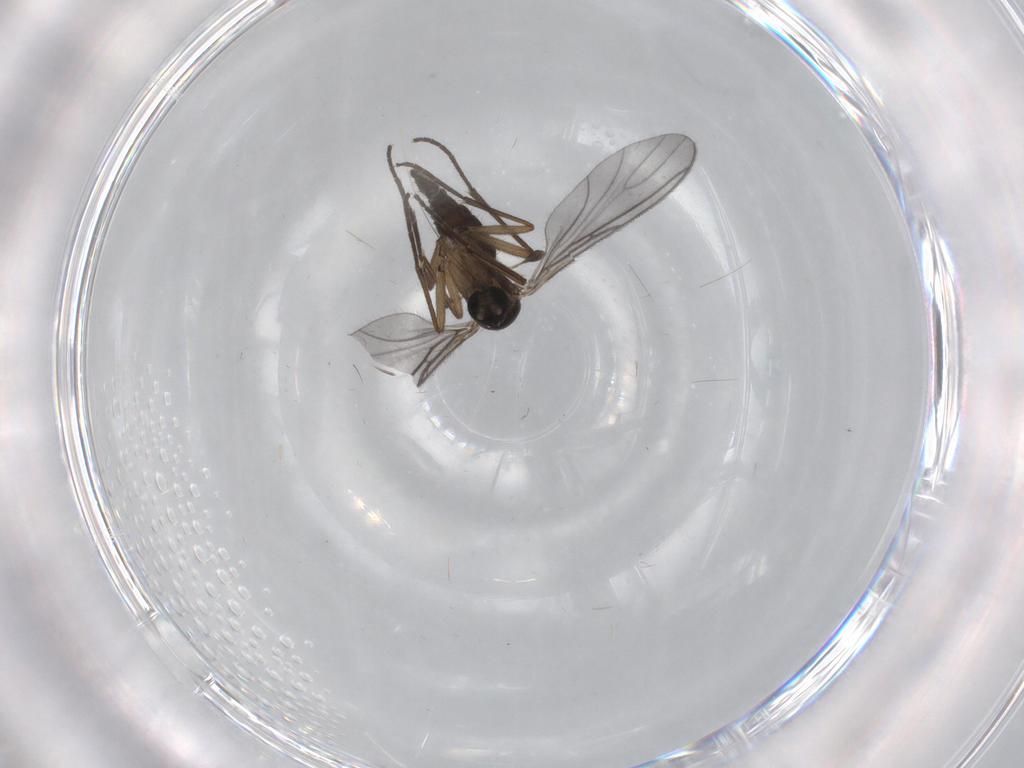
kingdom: Animalia
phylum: Arthropoda
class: Insecta
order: Diptera
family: Sciaridae
